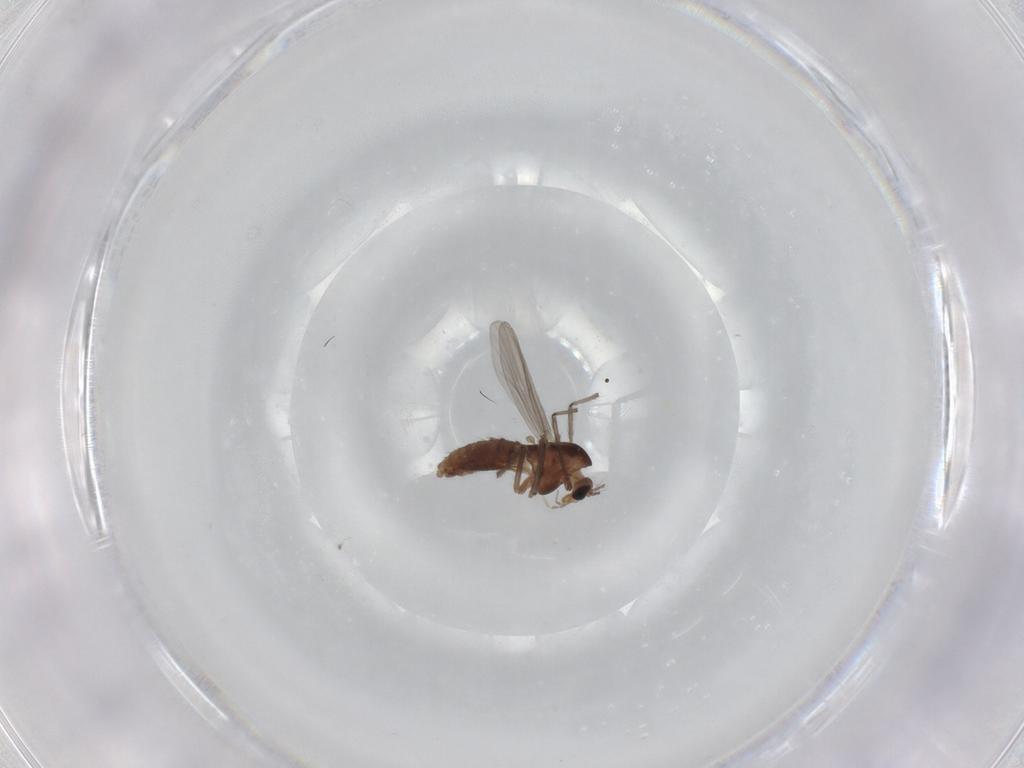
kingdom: Animalia
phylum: Arthropoda
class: Insecta
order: Diptera
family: Chironomidae
